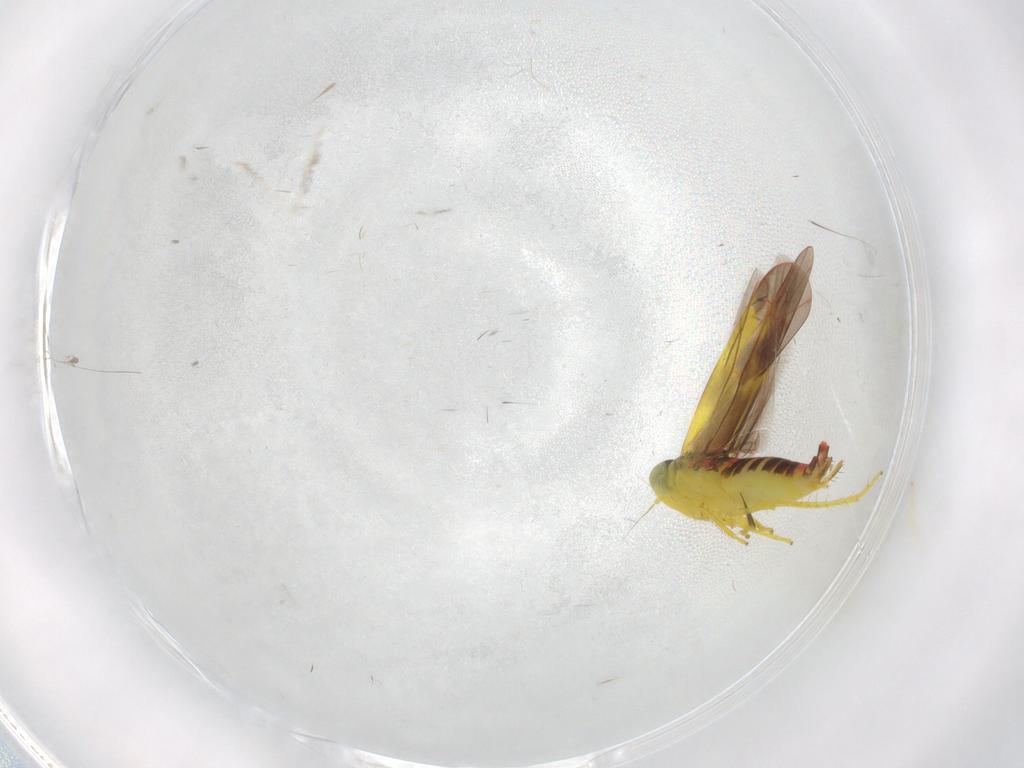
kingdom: Animalia
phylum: Arthropoda
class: Insecta
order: Hemiptera
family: Cicadellidae
